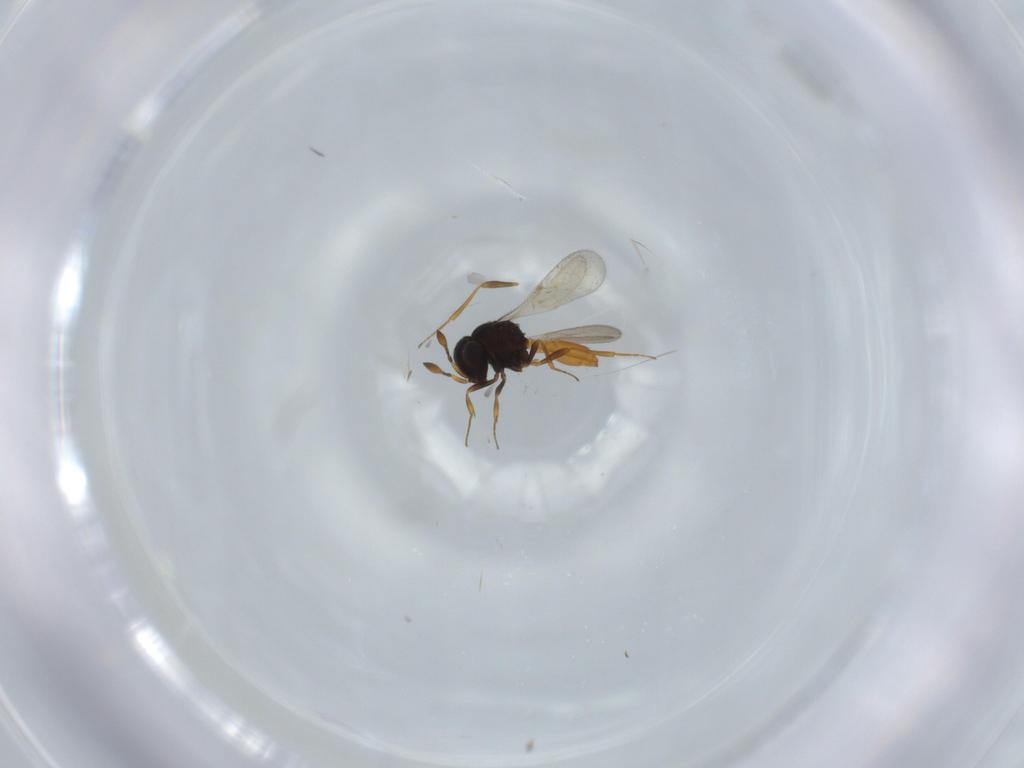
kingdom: Animalia
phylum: Arthropoda
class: Insecta
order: Hymenoptera
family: Scelionidae
